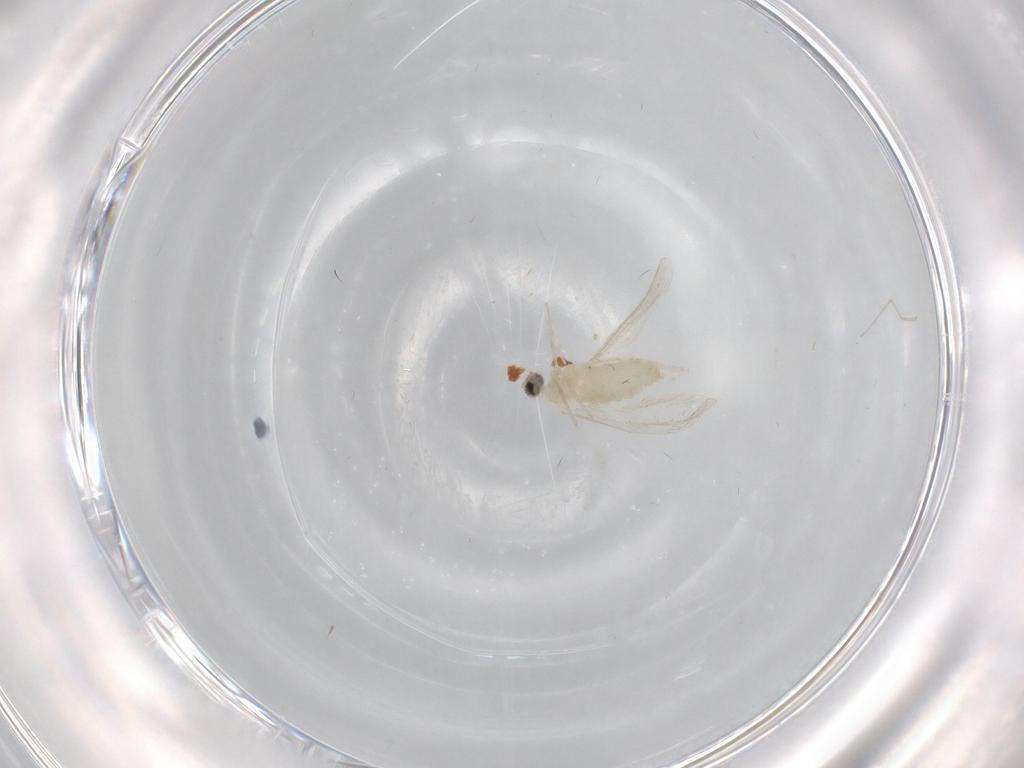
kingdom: Animalia
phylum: Arthropoda
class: Insecta
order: Diptera
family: Cecidomyiidae
